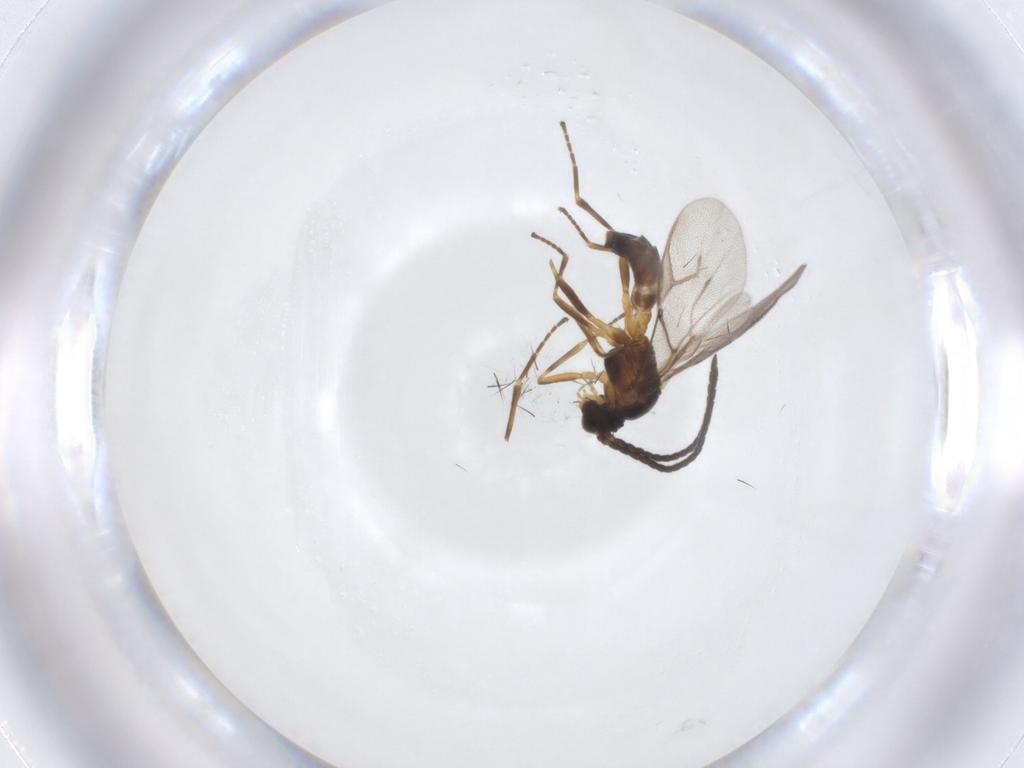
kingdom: Animalia
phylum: Arthropoda
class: Insecta
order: Hymenoptera
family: Braconidae
